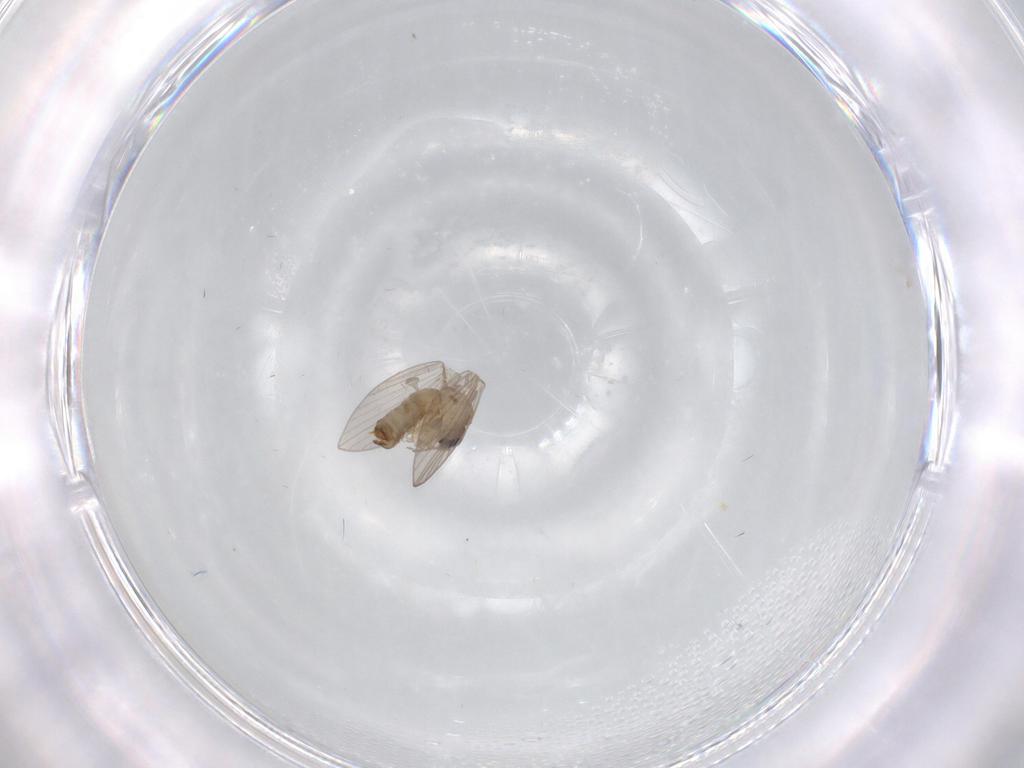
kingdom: Animalia
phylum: Arthropoda
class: Insecta
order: Diptera
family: Psychodidae
